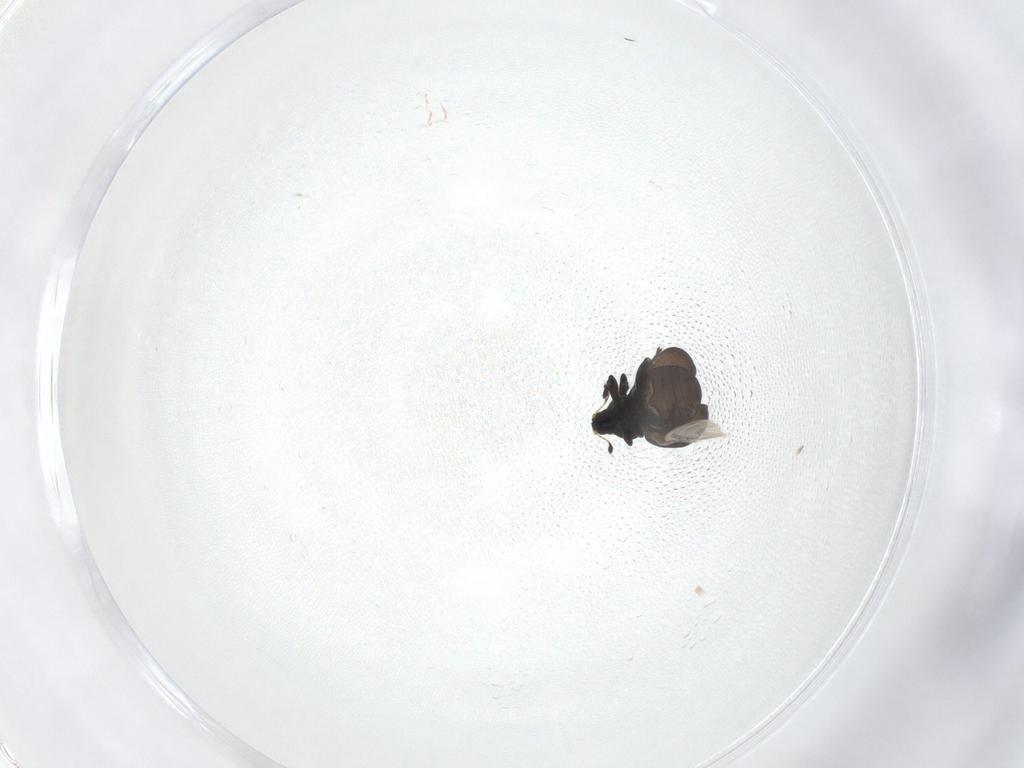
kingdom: Animalia
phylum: Arthropoda
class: Insecta
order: Coleoptera
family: Curculionidae
